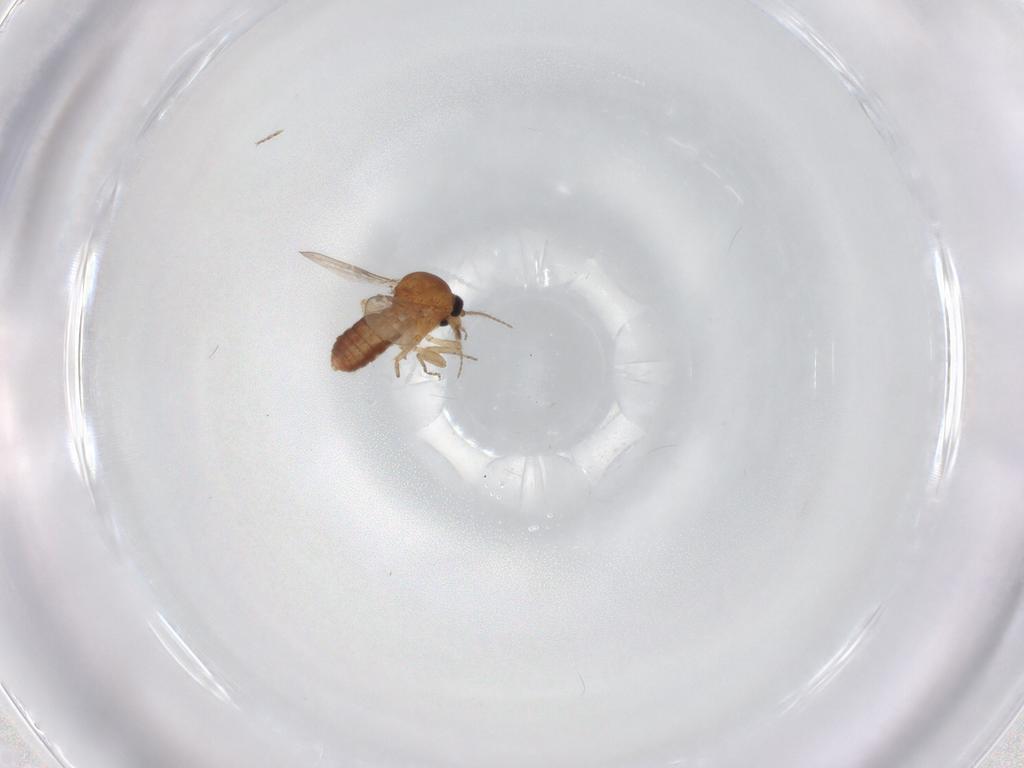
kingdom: Animalia
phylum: Arthropoda
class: Insecta
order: Diptera
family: Ceratopogonidae
